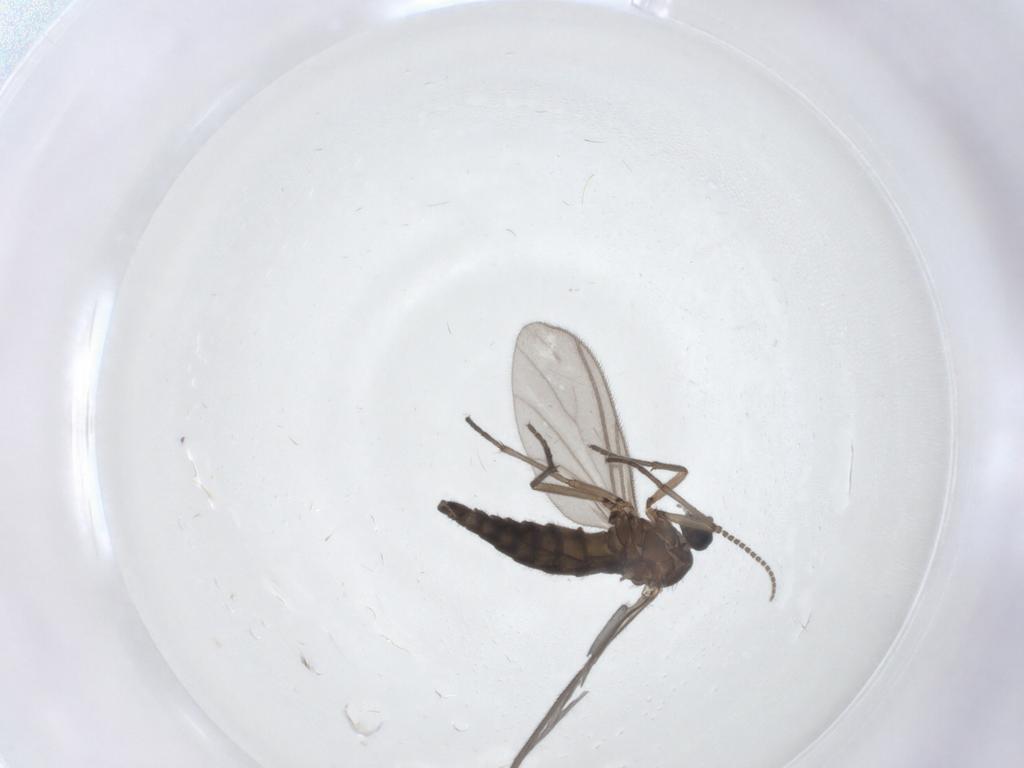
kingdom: Animalia
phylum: Arthropoda
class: Insecta
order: Diptera
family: Sciaridae
